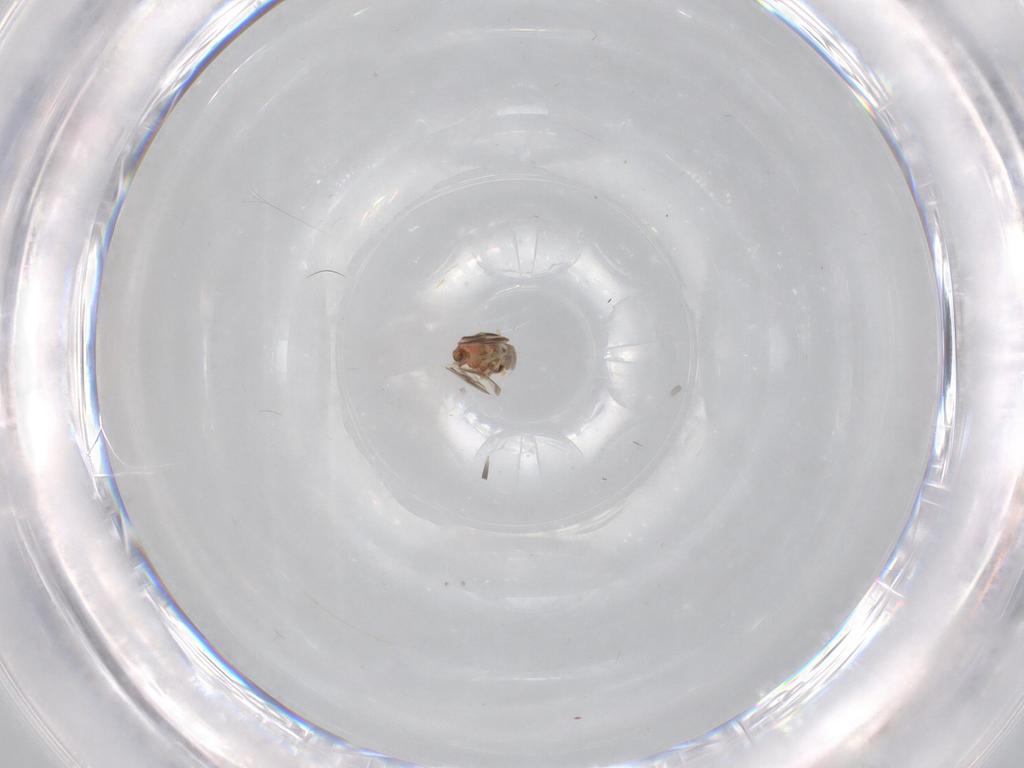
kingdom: Animalia
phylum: Arthropoda
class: Insecta
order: Hemiptera
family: Aleyrodidae
